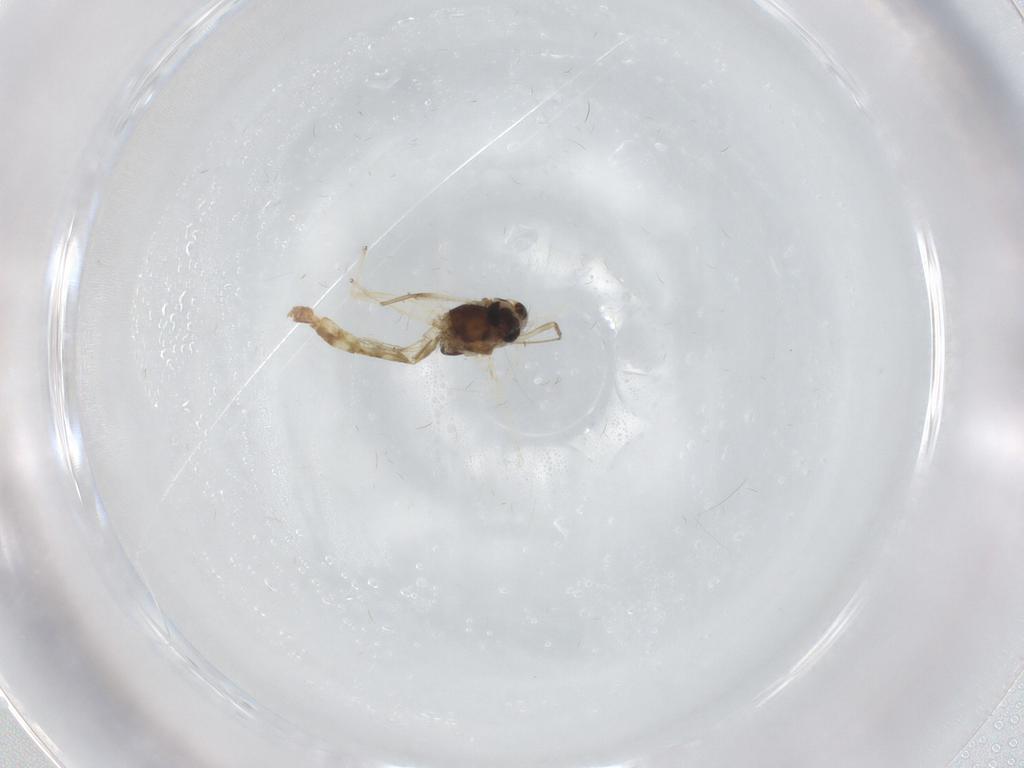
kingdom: Animalia
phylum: Arthropoda
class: Insecta
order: Diptera
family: Chironomidae
